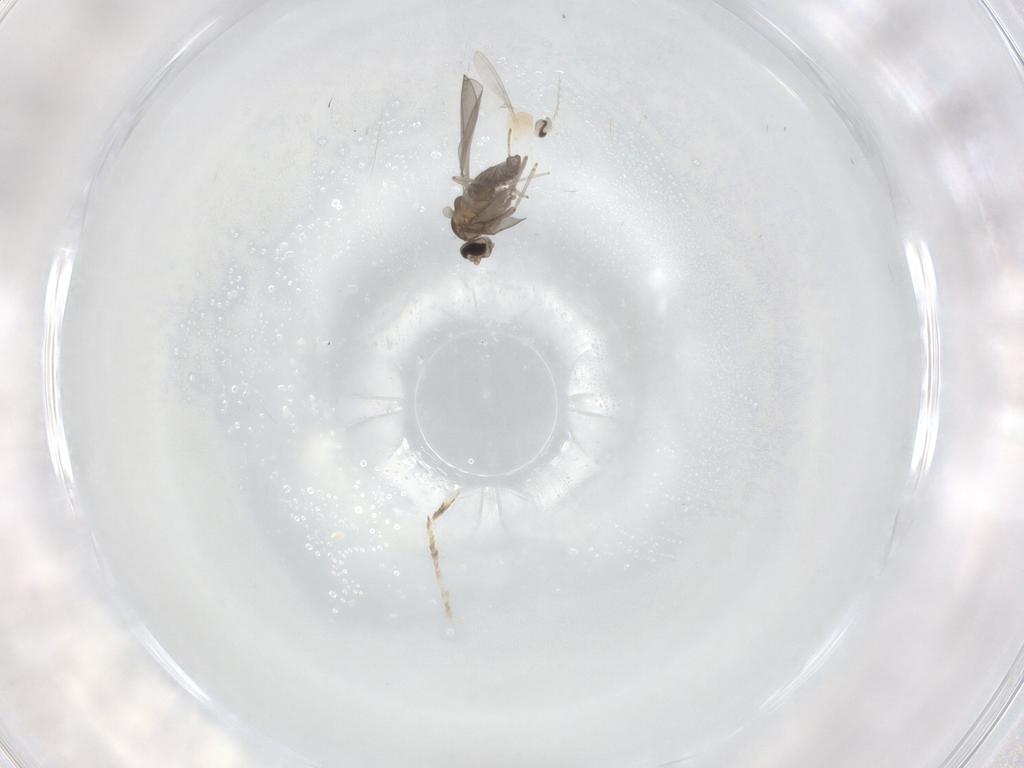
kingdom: Animalia
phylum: Arthropoda
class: Insecta
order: Diptera
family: Cecidomyiidae
